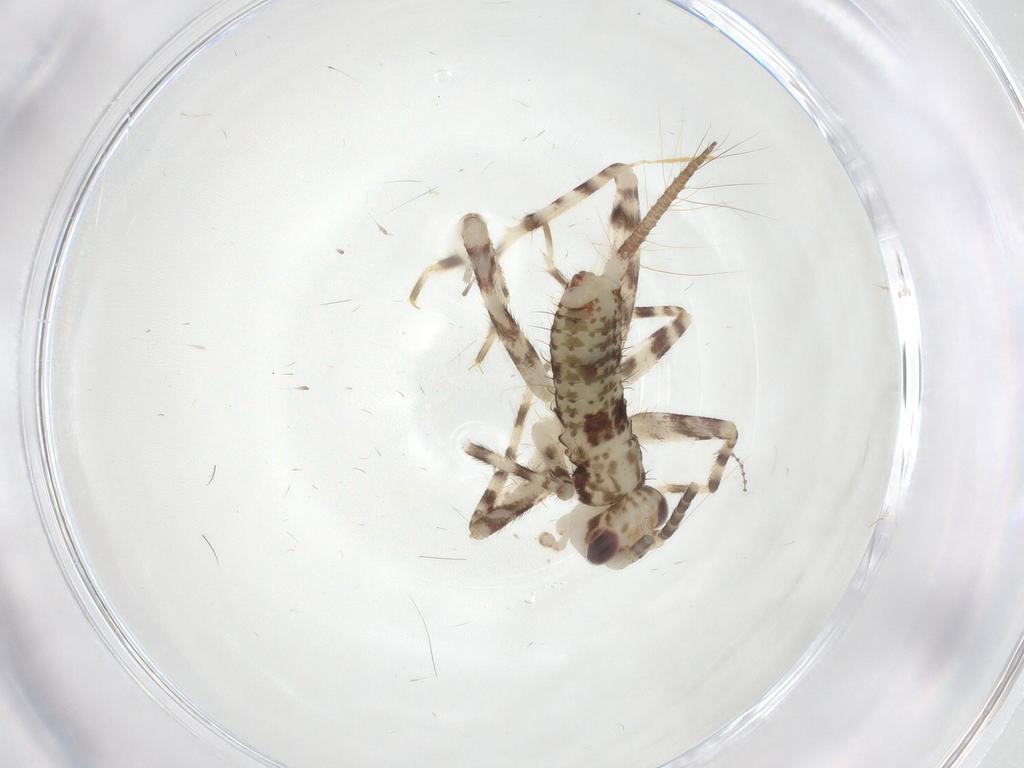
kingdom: Animalia
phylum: Arthropoda
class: Insecta
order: Orthoptera
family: Gryllidae
